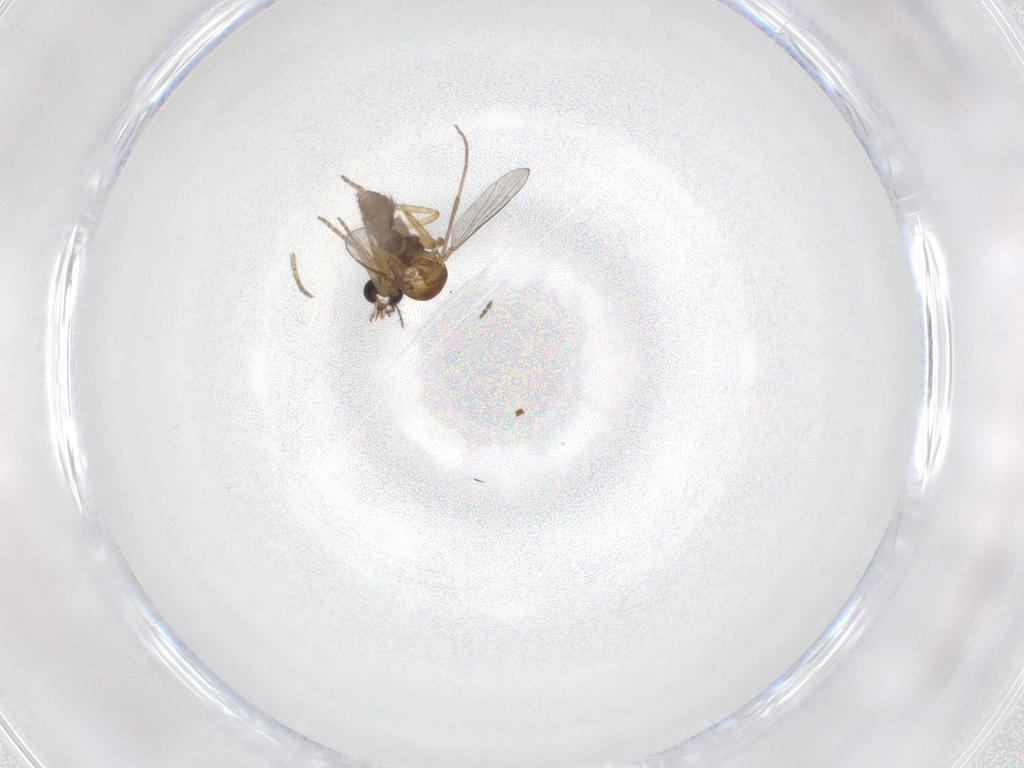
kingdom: Animalia
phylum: Arthropoda
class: Insecta
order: Diptera
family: Ceratopogonidae
